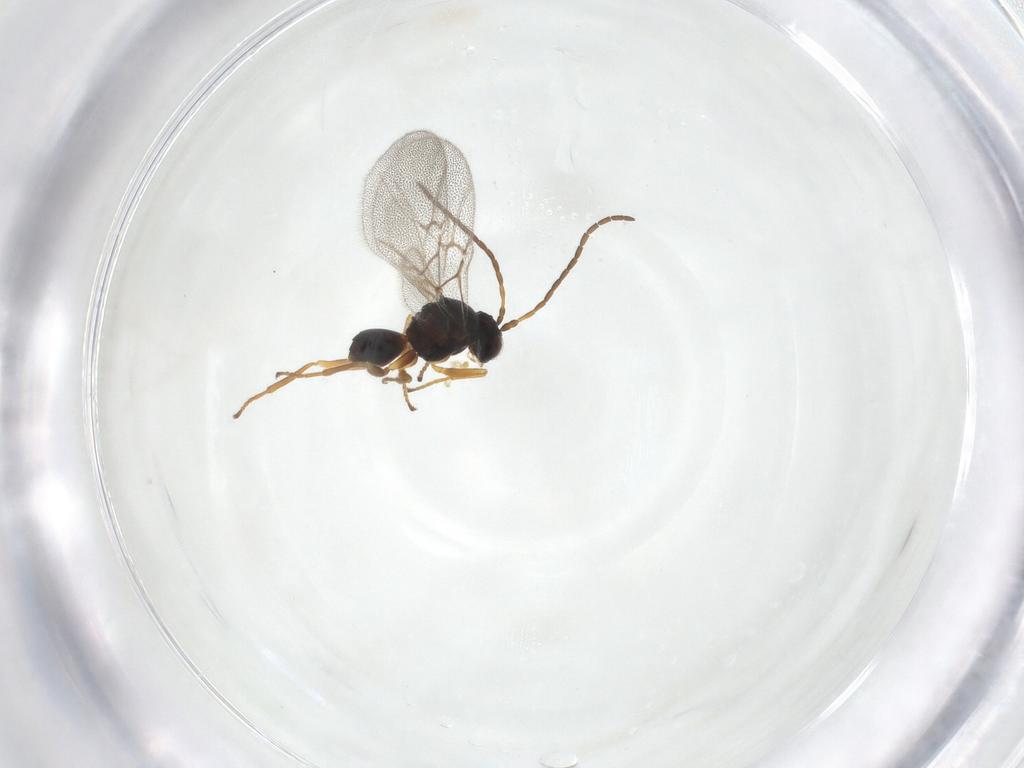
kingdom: Animalia
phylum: Arthropoda
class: Insecta
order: Hymenoptera
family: Cynipidae
